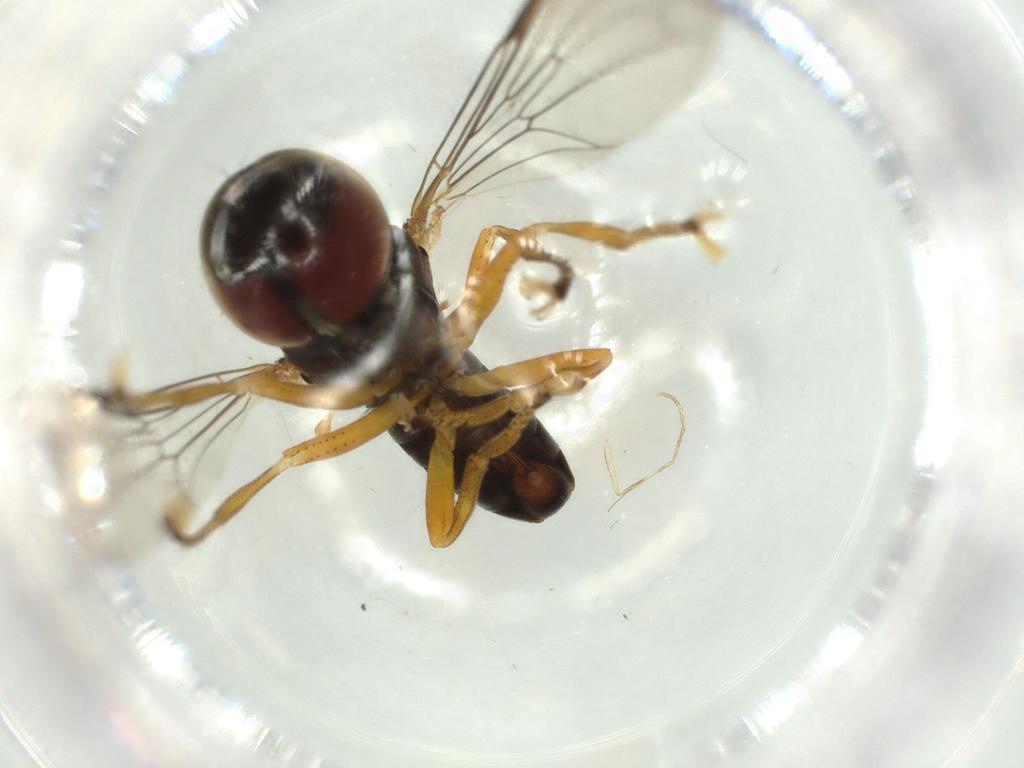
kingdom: Animalia
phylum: Arthropoda
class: Insecta
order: Diptera
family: Pipunculidae
